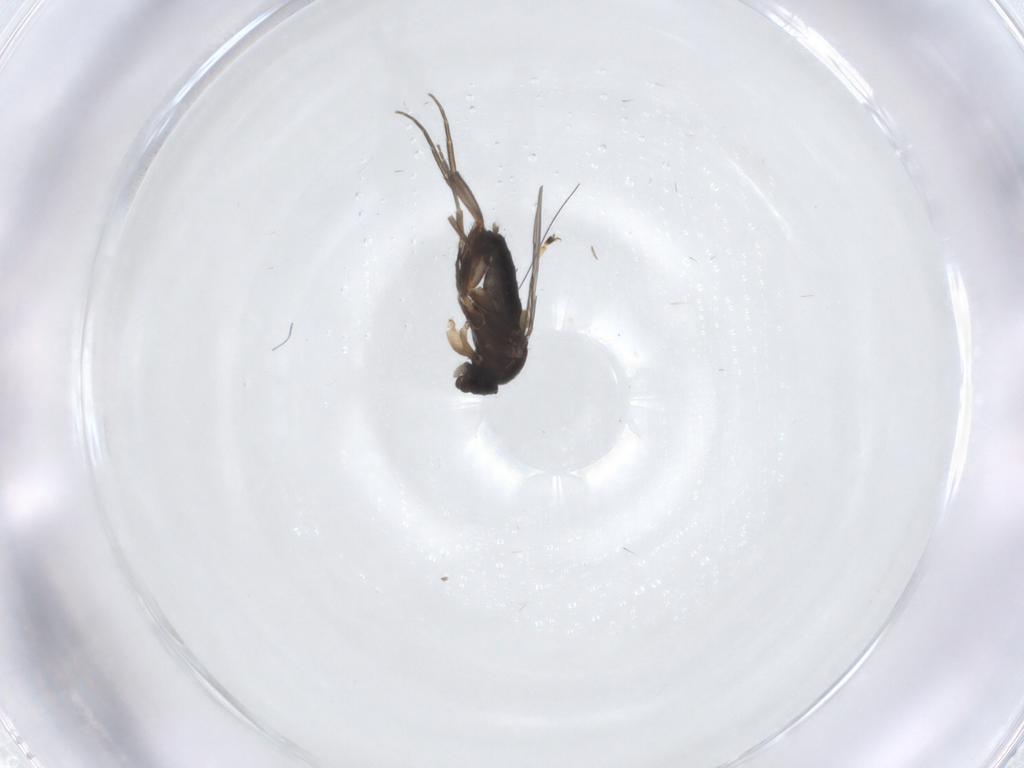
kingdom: Animalia
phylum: Arthropoda
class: Insecta
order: Diptera
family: Phoridae
